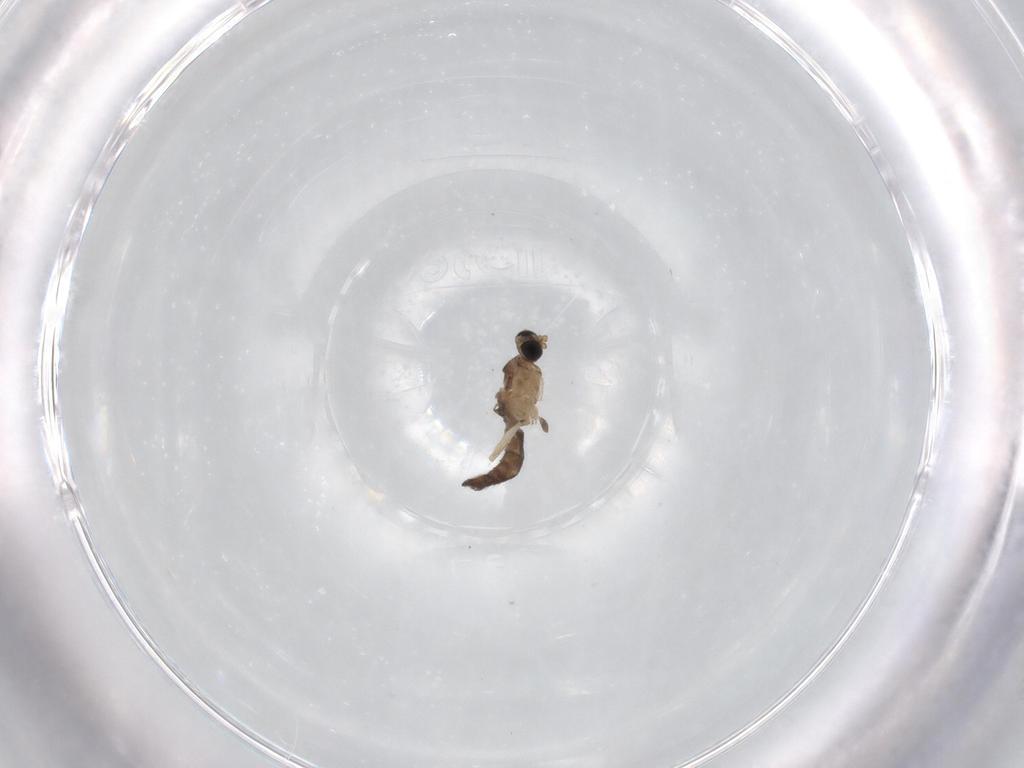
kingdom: Animalia
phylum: Arthropoda
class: Insecta
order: Diptera
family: Sciaridae
